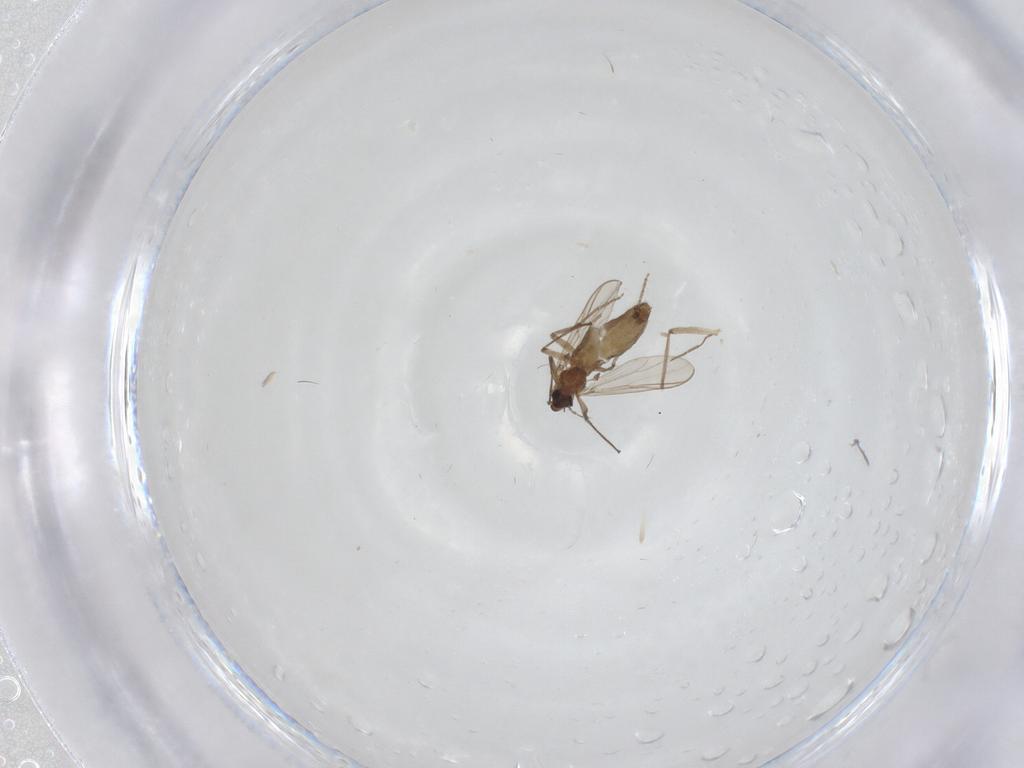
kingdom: Animalia
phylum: Arthropoda
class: Insecta
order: Diptera
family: Chironomidae
